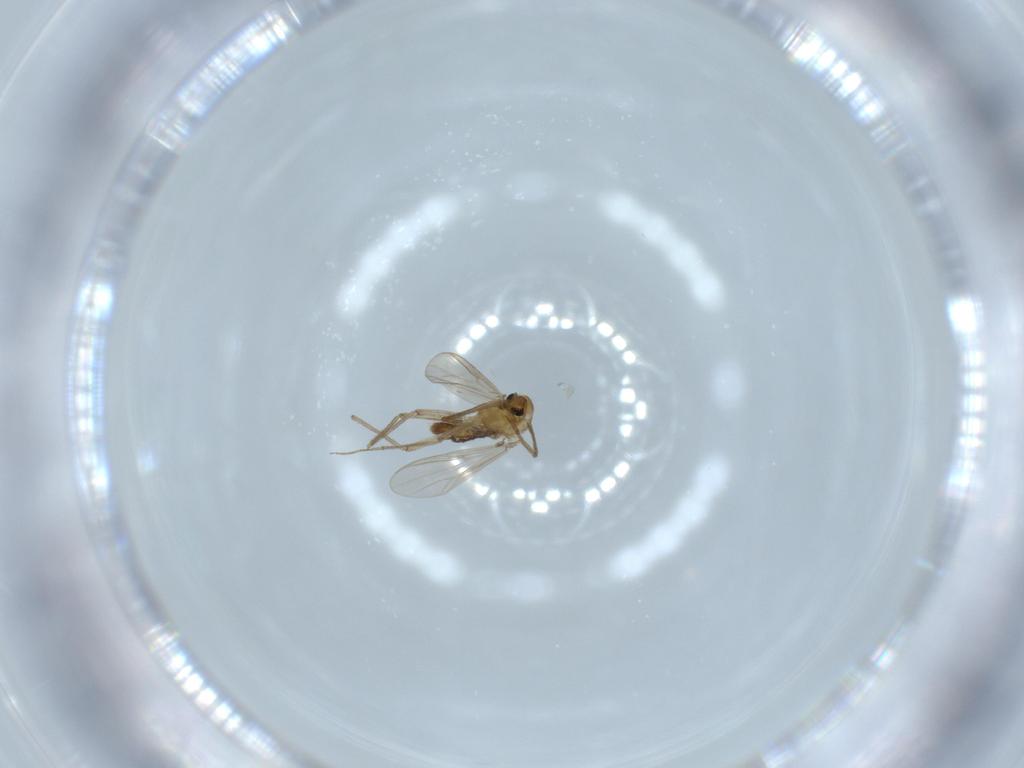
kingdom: Animalia
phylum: Arthropoda
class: Insecta
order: Diptera
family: Chironomidae
